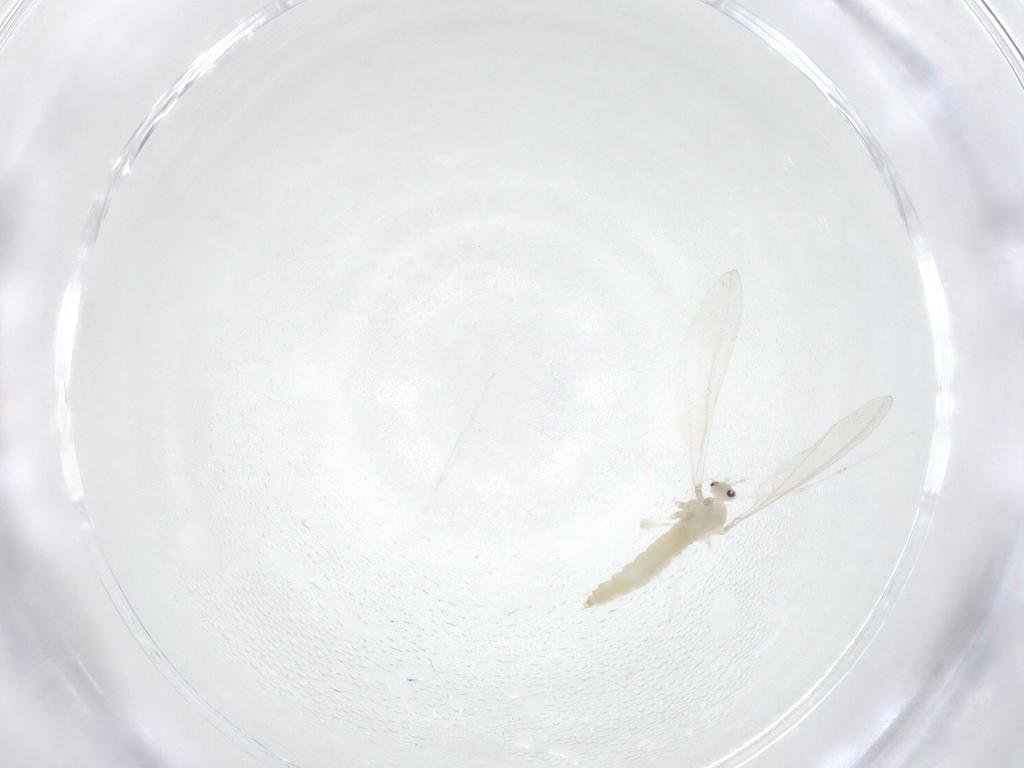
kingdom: Animalia
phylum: Arthropoda
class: Insecta
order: Diptera
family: Cecidomyiidae
